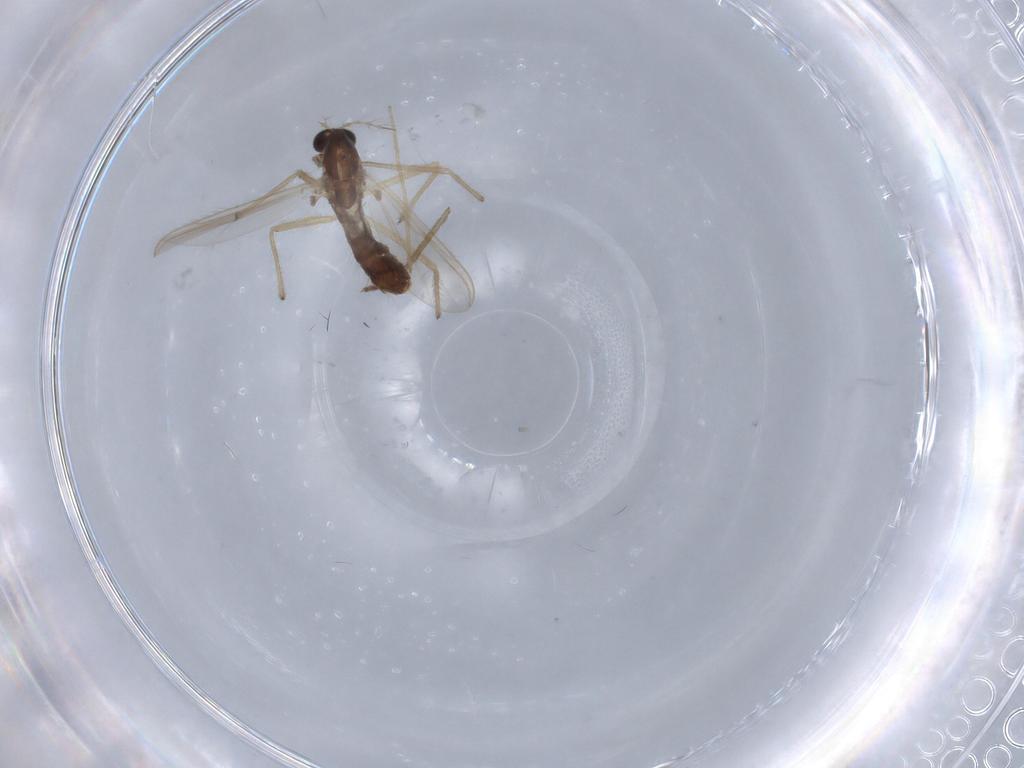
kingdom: Animalia
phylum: Arthropoda
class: Insecta
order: Diptera
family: Chironomidae
